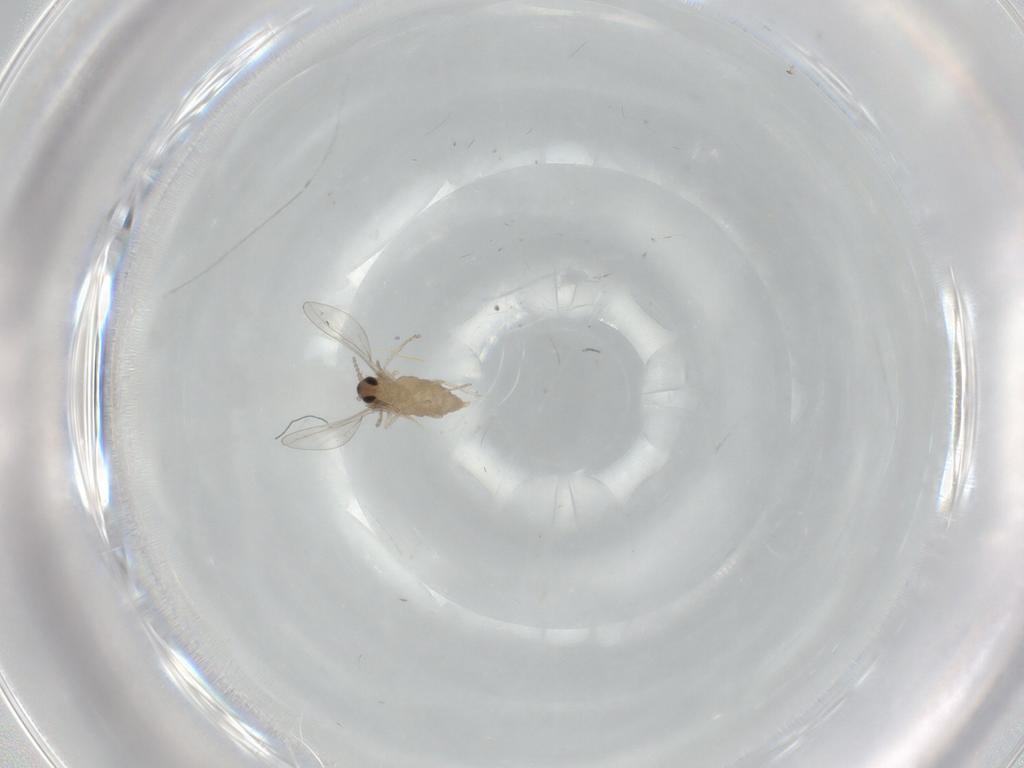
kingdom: Animalia
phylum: Arthropoda
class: Insecta
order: Diptera
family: Cecidomyiidae
